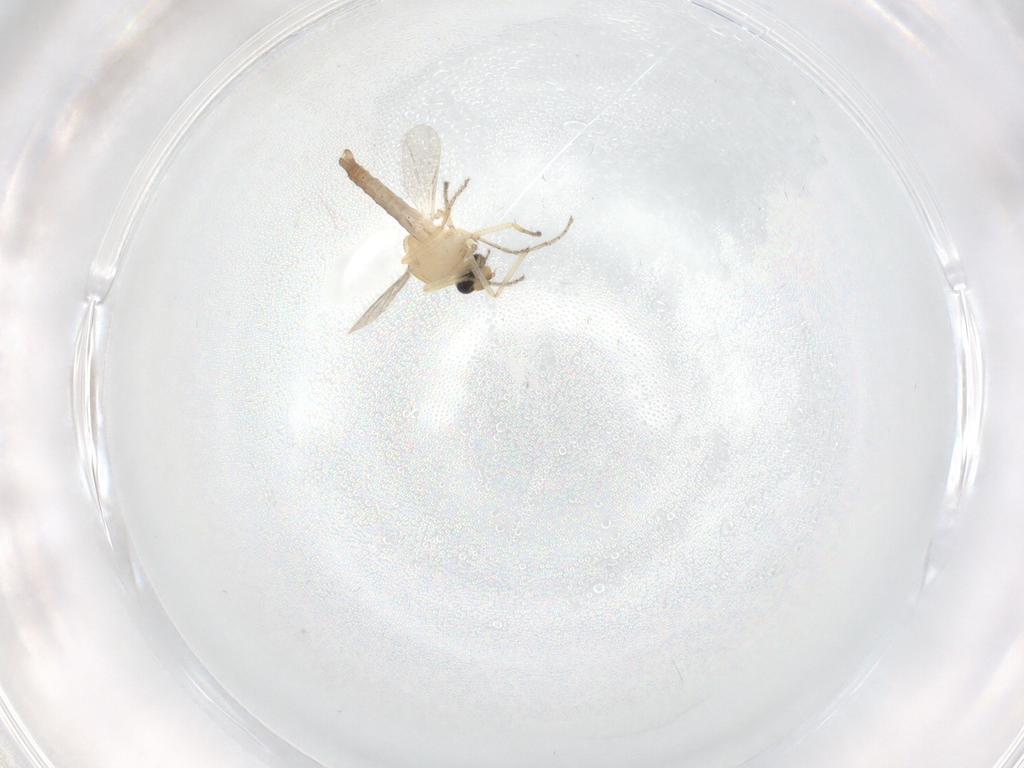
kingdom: Animalia
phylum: Arthropoda
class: Insecta
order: Diptera
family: Ceratopogonidae
